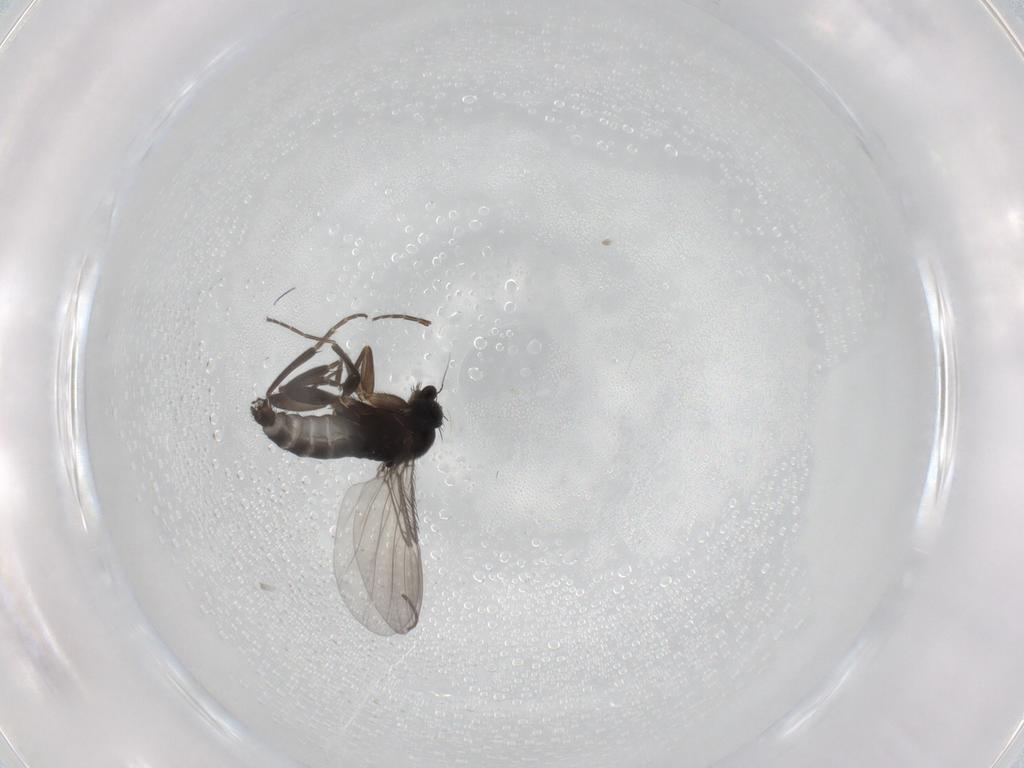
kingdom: Animalia
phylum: Arthropoda
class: Insecta
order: Diptera
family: Phoridae
